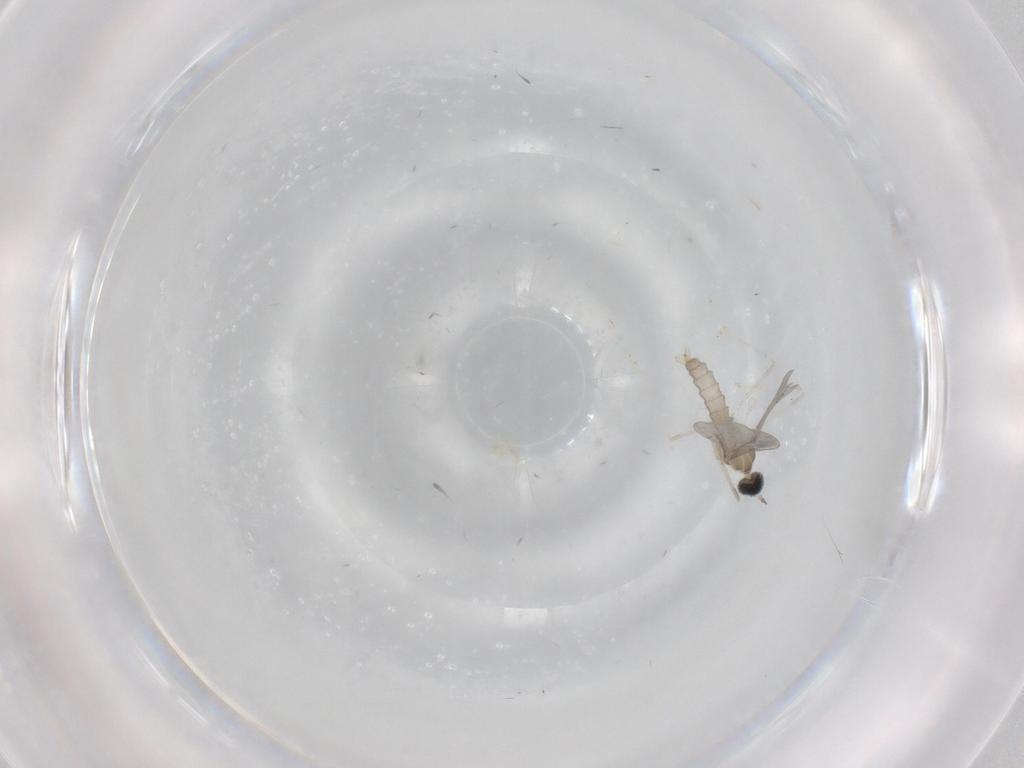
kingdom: Animalia
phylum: Arthropoda
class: Insecta
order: Diptera
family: Cecidomyiidae
